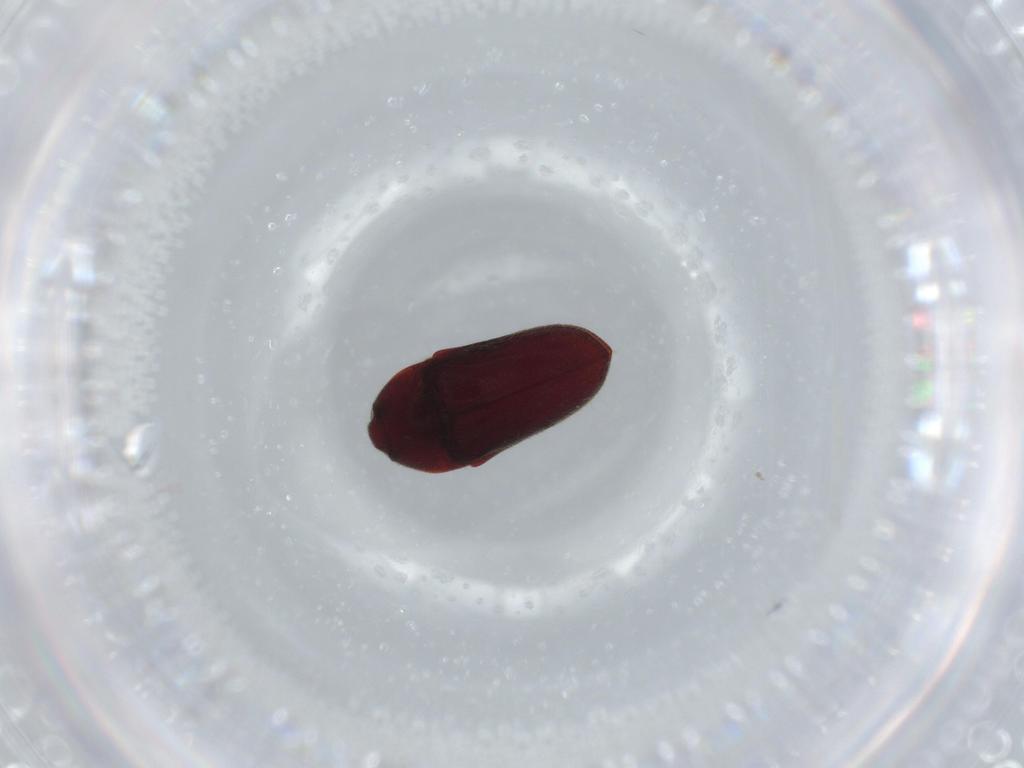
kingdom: Animalia
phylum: Arthropoda
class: Insecta
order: Coleoptera
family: Throscidae
